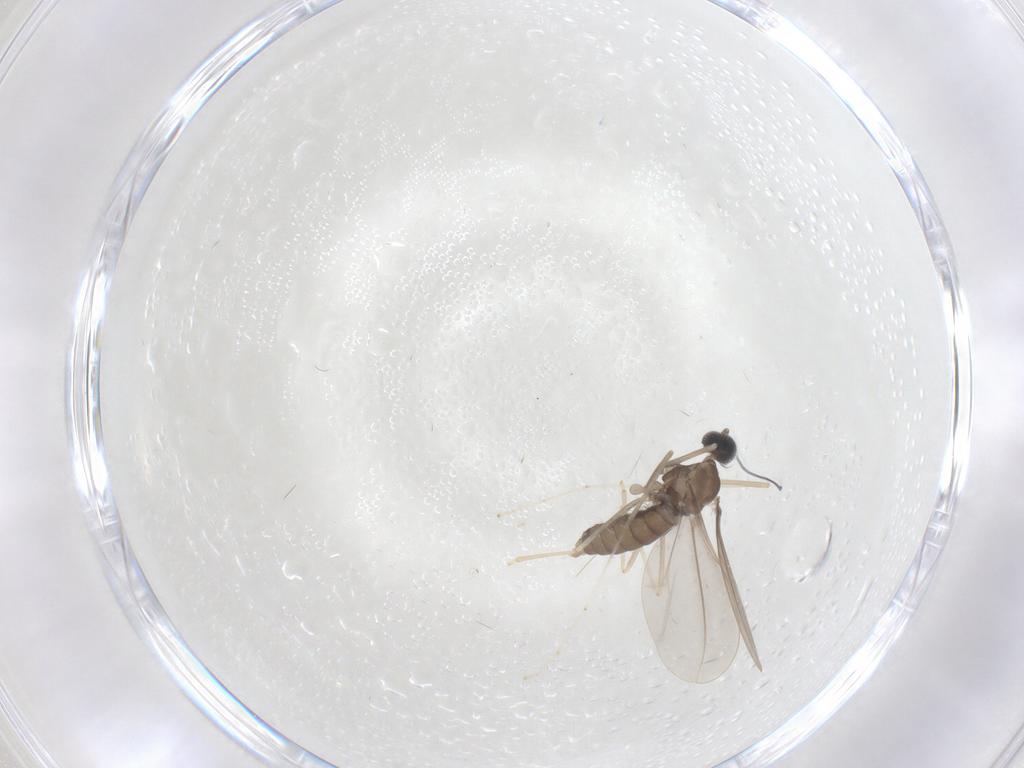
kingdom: Animalia
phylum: Arthropoda
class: Insecta
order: Diptera
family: Cecidomyiidae
